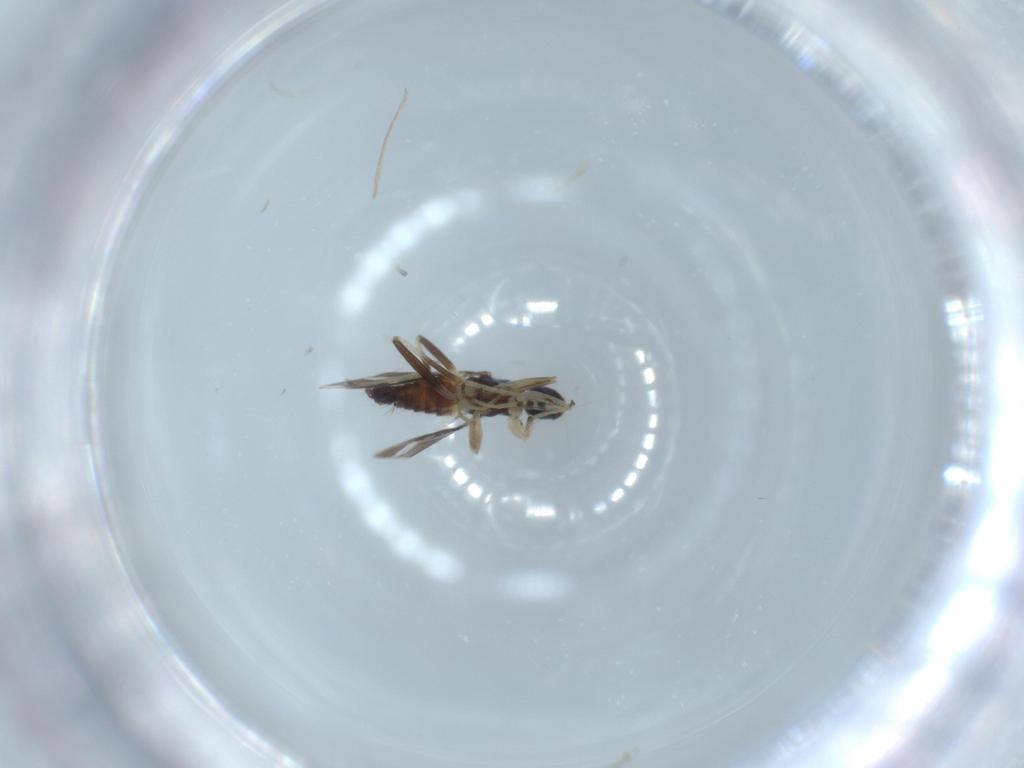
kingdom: Animalia
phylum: Arthropoda
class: Insecta
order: Diptera
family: Hybotidae
